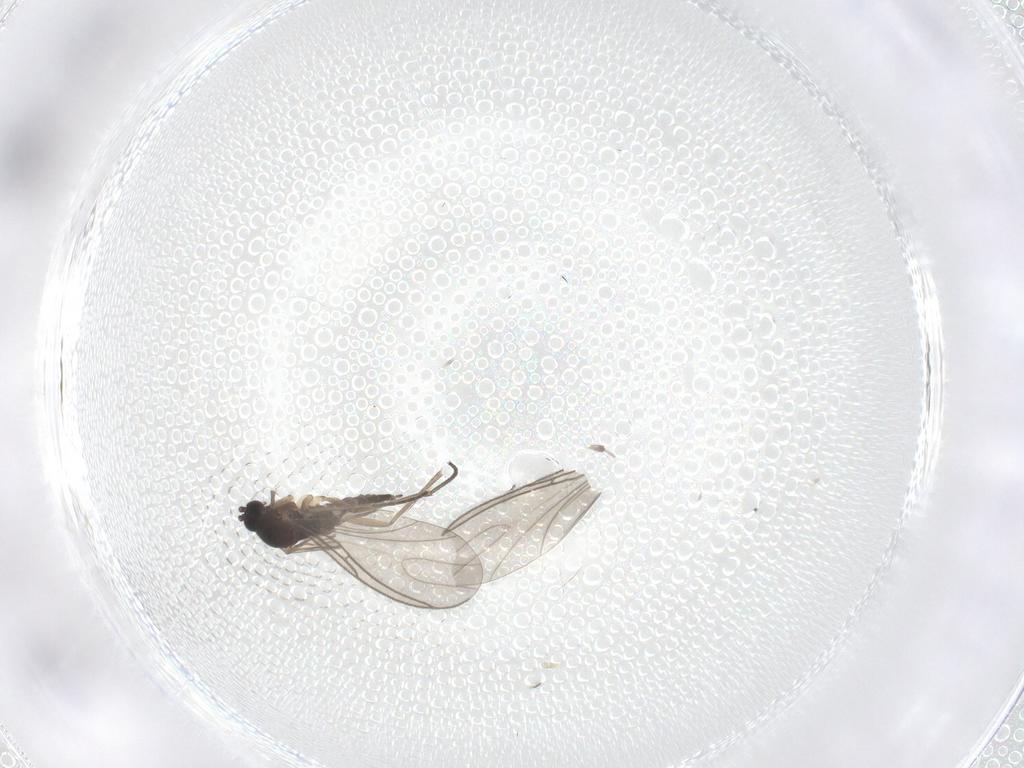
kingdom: Animalia
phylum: Arthropoda
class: Insecta
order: Diptera
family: Sciaridae
